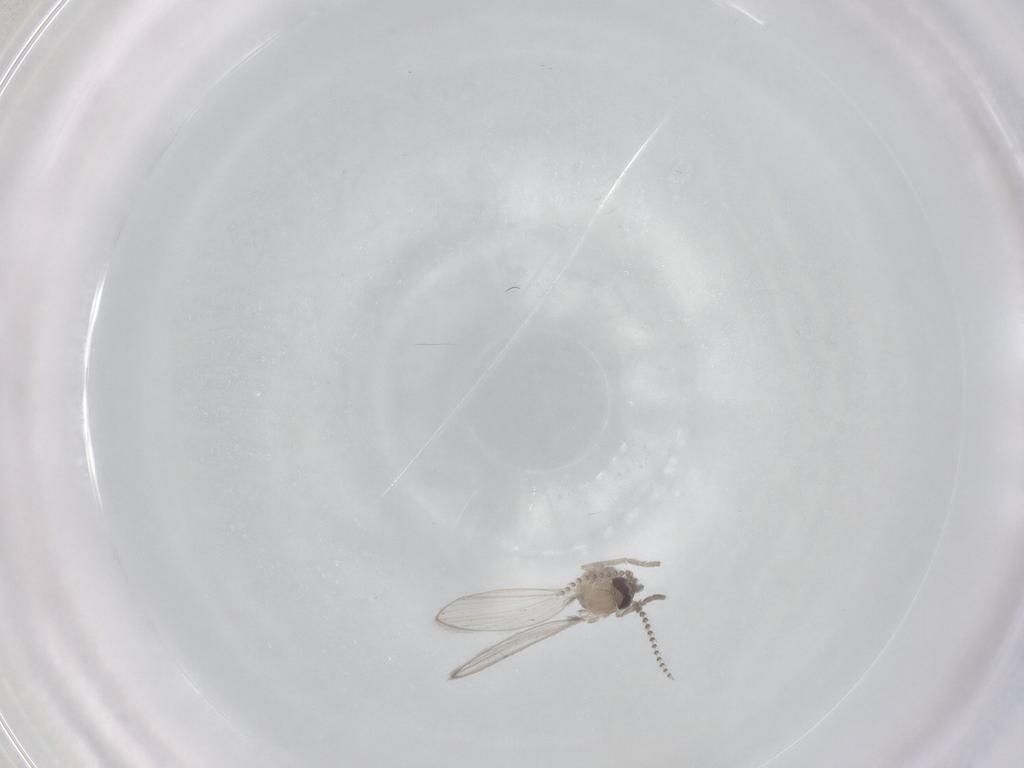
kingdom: Animalia
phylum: Arthropoda
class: Insecta
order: Diptera
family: Psychodidae
